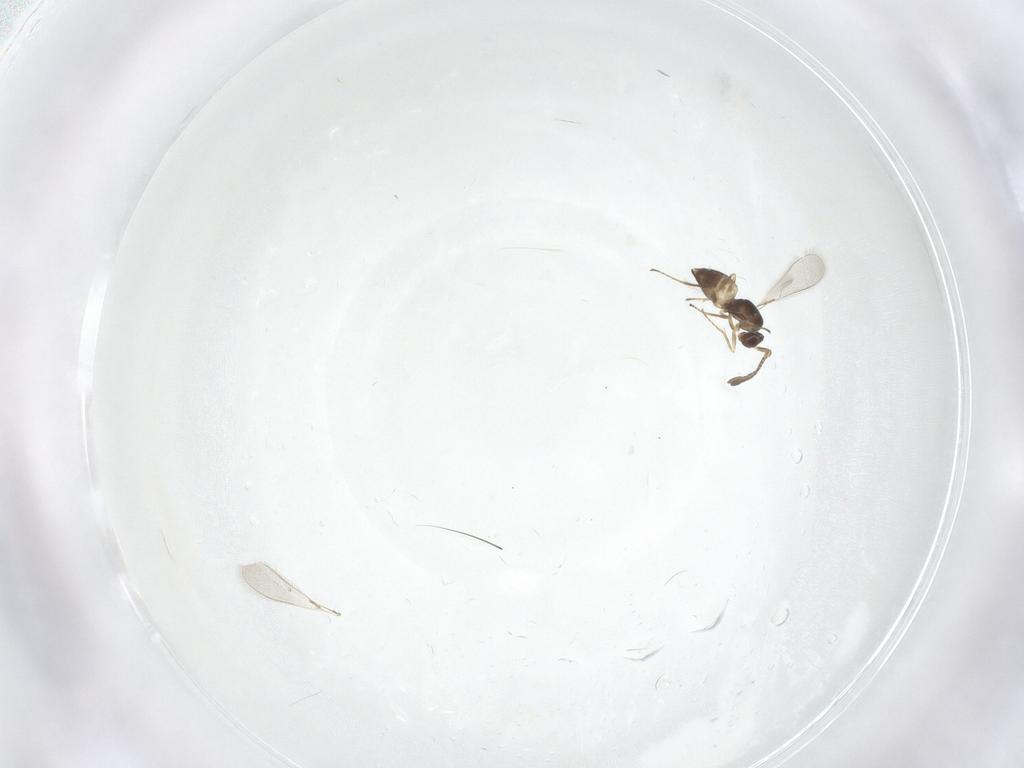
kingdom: Animalia
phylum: Arthropoda
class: Insecta
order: Hymenoptera
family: Mymaridae
